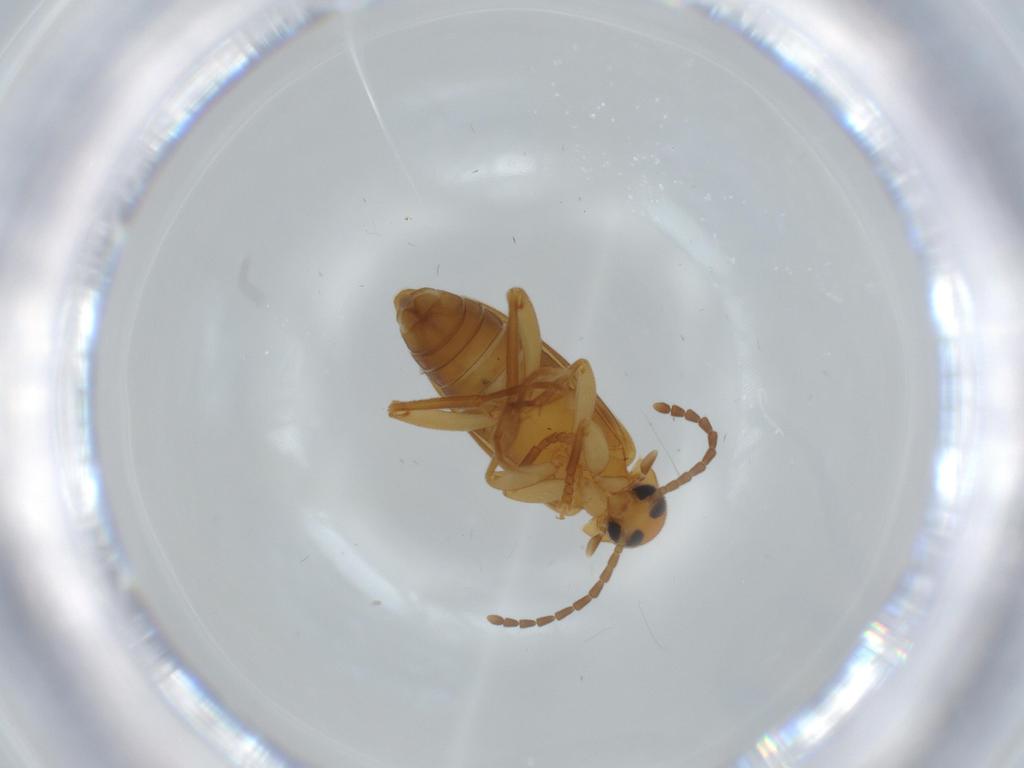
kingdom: Animalia
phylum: Arthropoda
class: Insecta
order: Coleoptera
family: Scraptiidae
